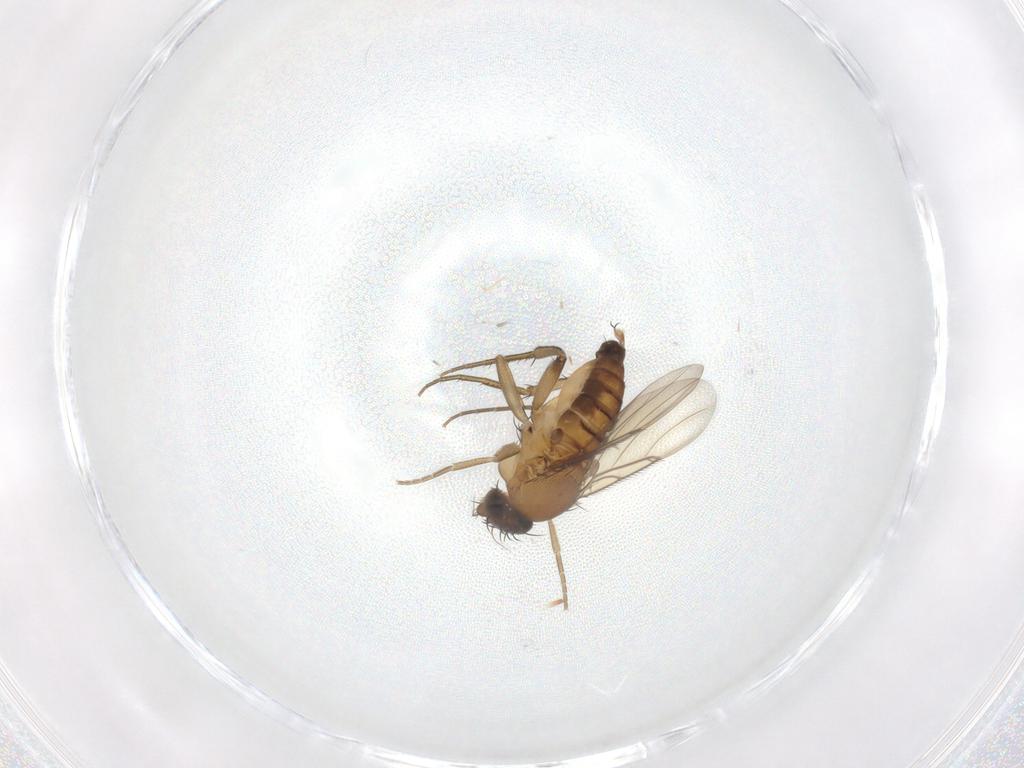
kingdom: Animalia
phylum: Arthropoda
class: Insecta
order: Diptera
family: Phoridae
